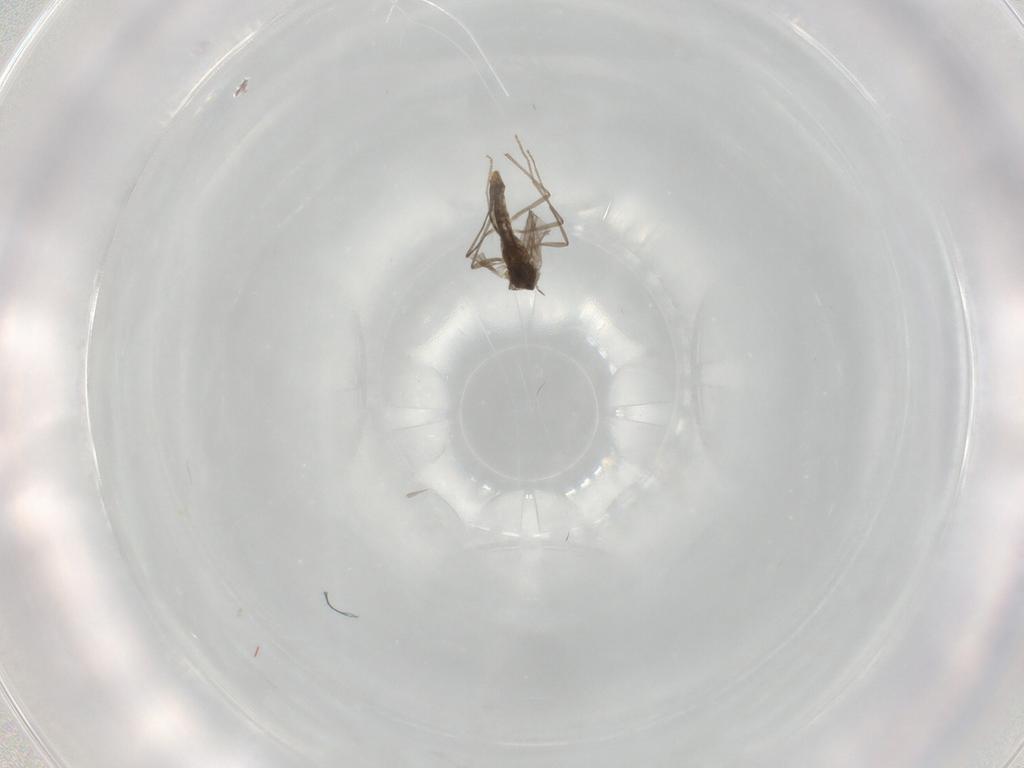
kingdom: Animalia
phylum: Arthropoda
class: Insecta
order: Diptera
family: Chironomidae
